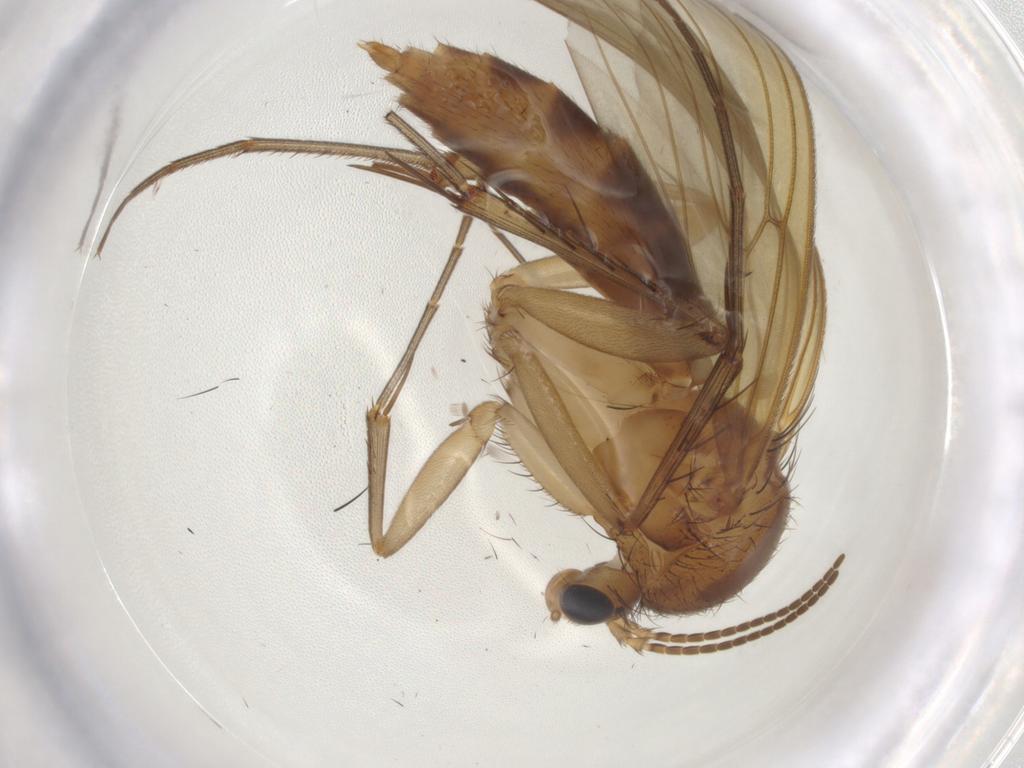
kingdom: Animalia
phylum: Arthropoda
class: Insecta
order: Diptera
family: Mycetophilidae
